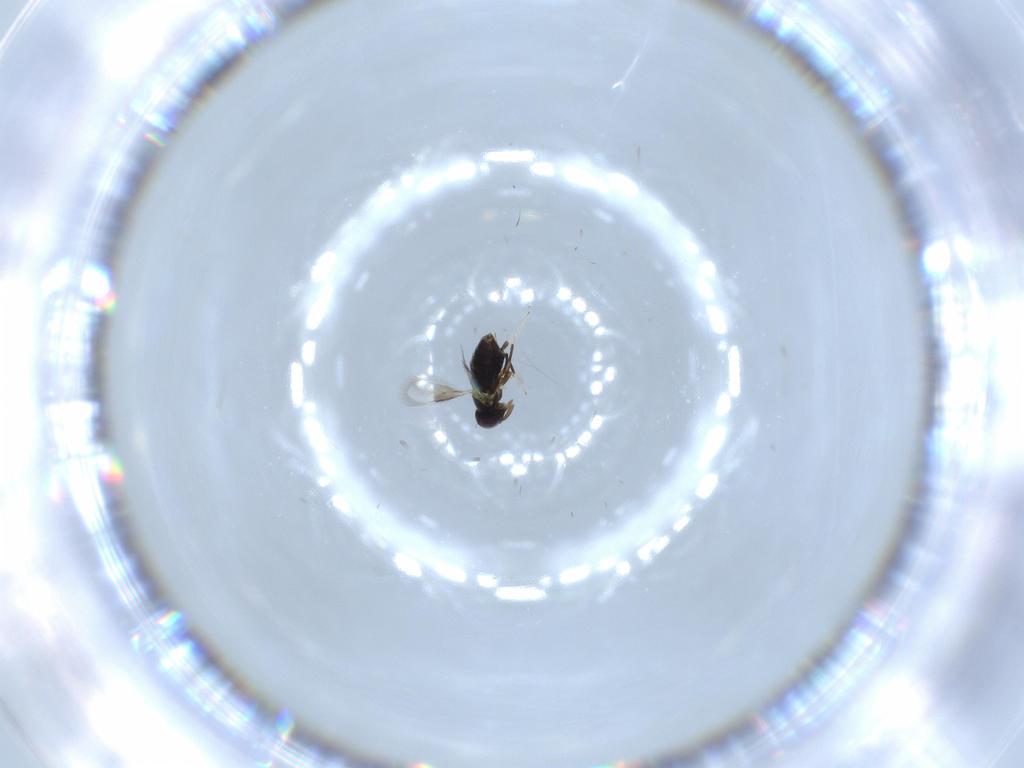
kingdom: Animalia
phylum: Arthropoda
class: Insecta
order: Hymenoptera
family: Signiphoridae
